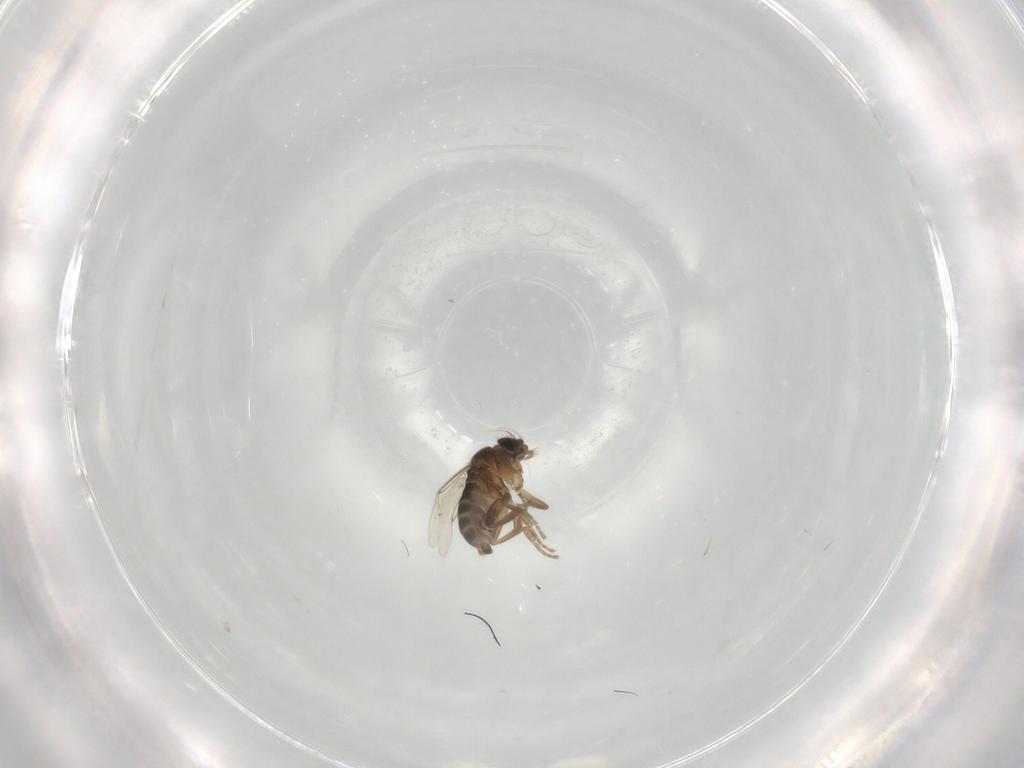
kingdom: Animalia
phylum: Arthropoda
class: Insecta
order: Diptera
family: Phoridae
